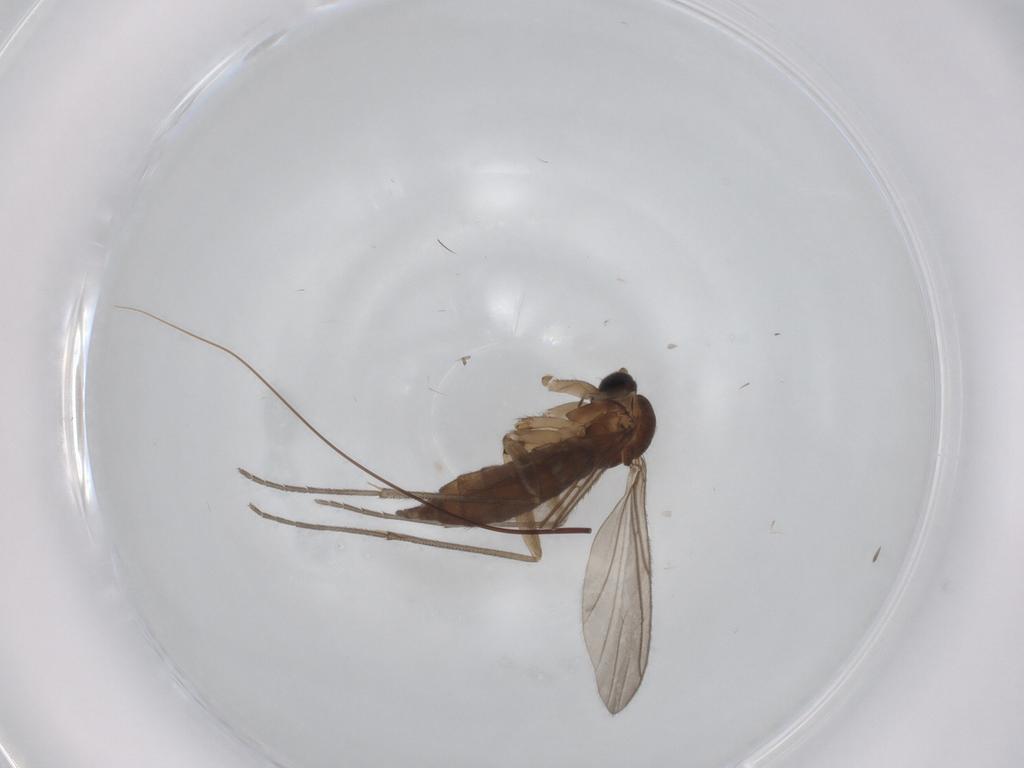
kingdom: Animalia
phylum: Arthropoda
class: Insecta
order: Diptera
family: Sciaridae
